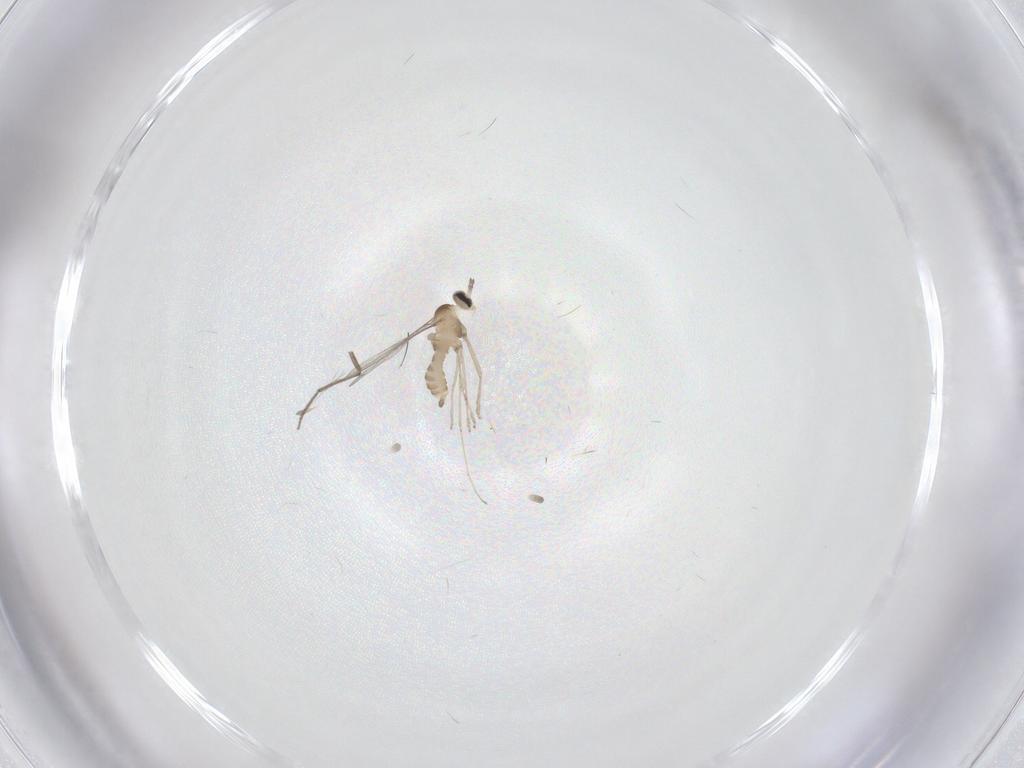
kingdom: Animalia
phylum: Arthropoda
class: Insecta
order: Diptera
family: Cecidomyiidae
